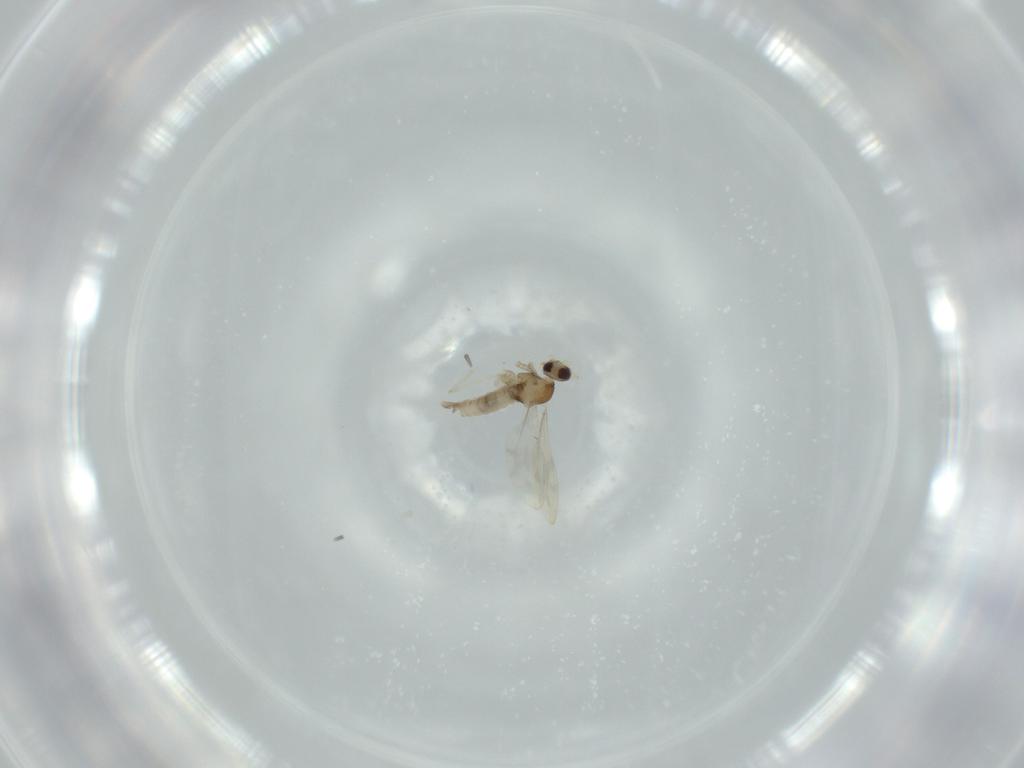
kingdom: Animalia
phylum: Arthropoda
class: Insecta
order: Diptera
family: Cecidomyiidae
